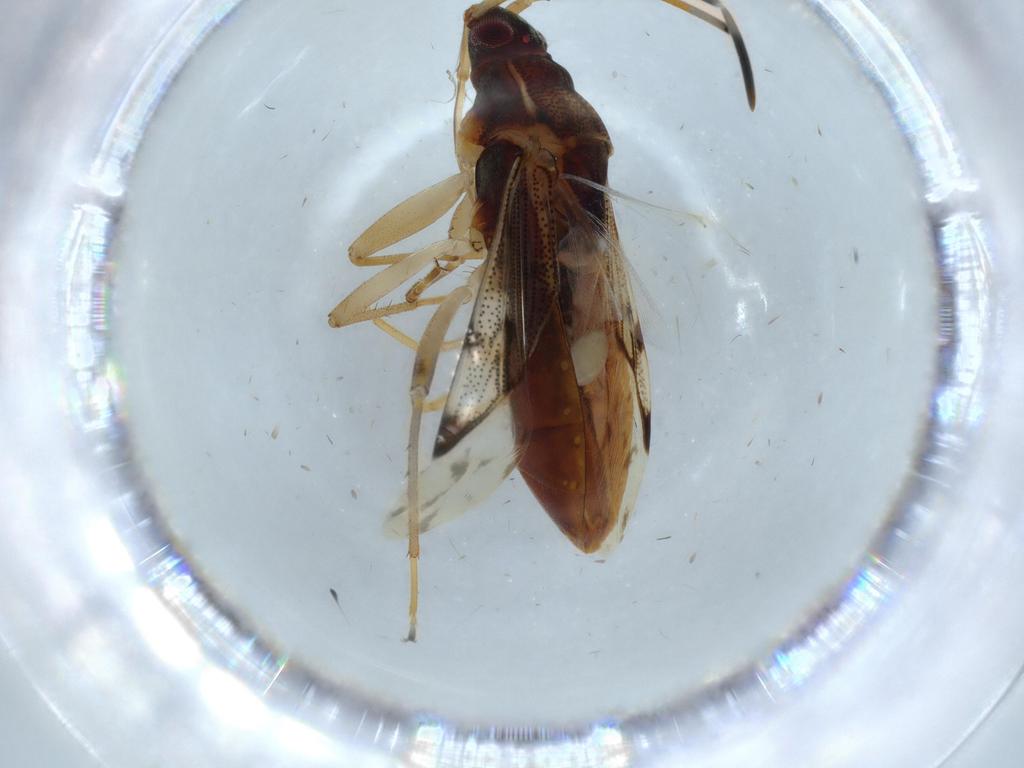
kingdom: Animalia
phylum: Arthropoda
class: Insecta
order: Hemiptera
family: Rhyparochromidae
